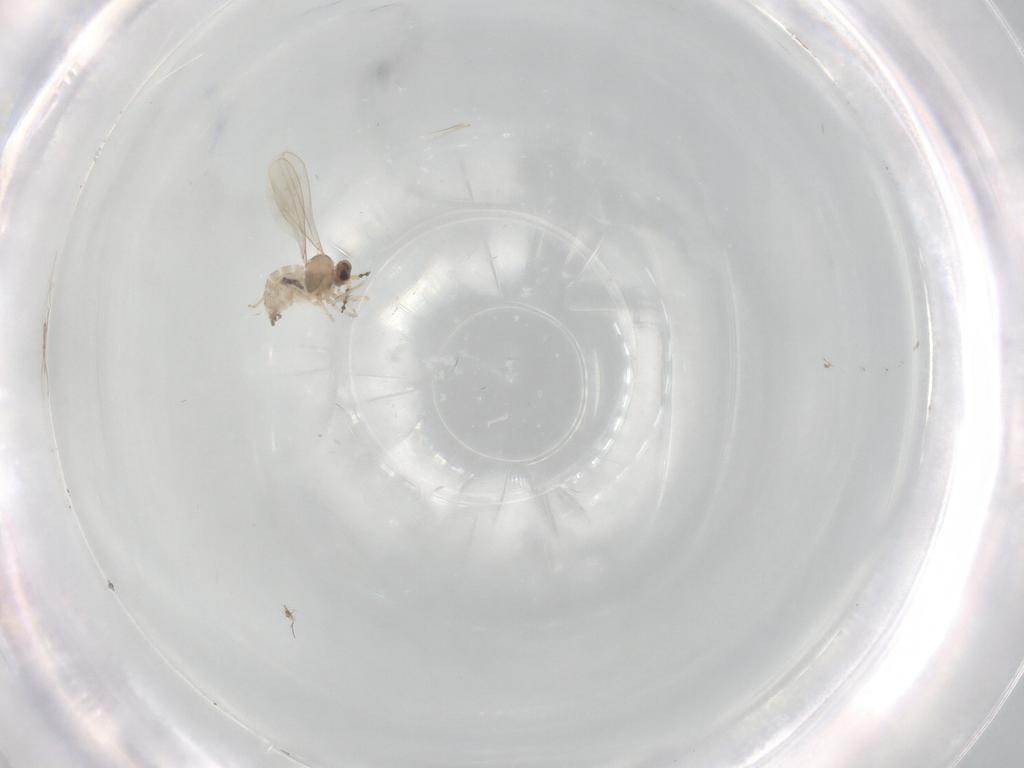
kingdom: Animalia
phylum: Arthropoda
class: Insecta
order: Diptera
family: Cecidomyiidae
